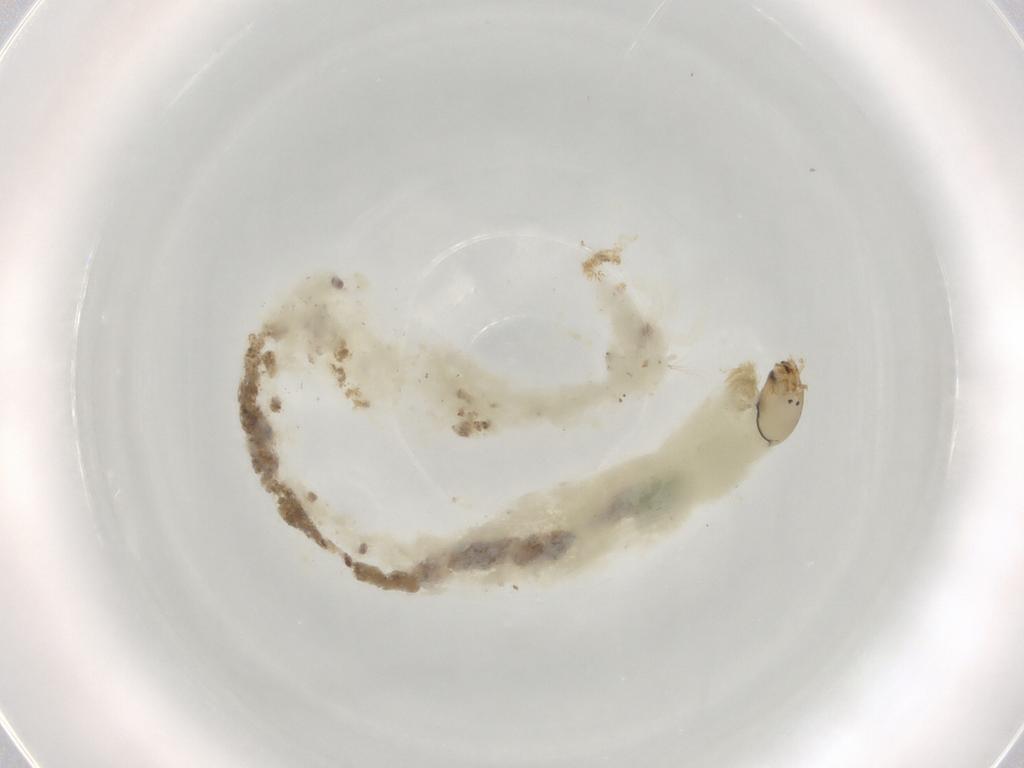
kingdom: Animalia
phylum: Arthropoda
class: Insecta
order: Diptera
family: Chironomidae
